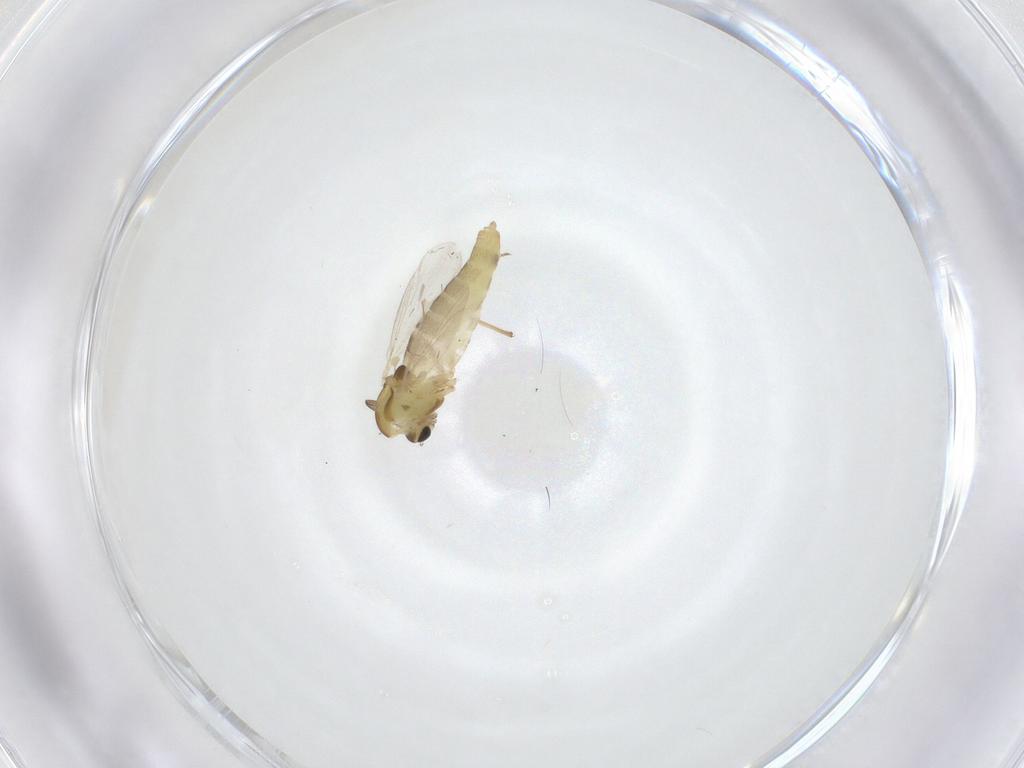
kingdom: Animalia
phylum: Arthropoda
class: Insecta
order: Diptera
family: Chironomidae
